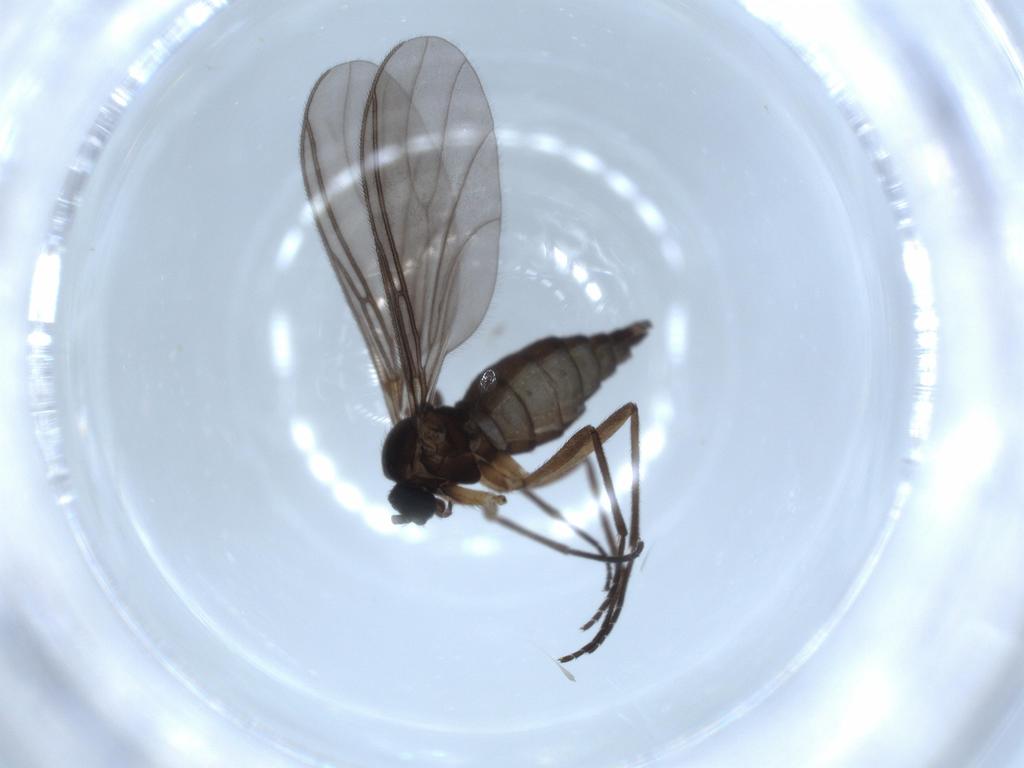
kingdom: Animalia
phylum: Arthropoda
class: Insecta
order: Diptera
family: Sciaridae
